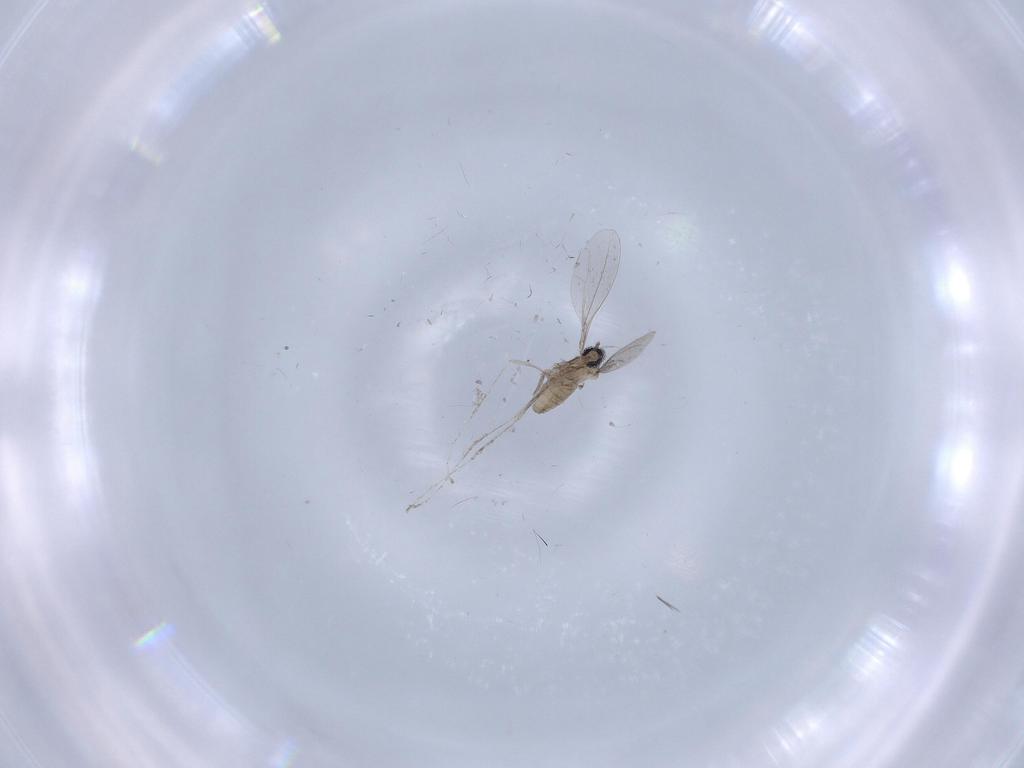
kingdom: Animalia
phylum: Arthropoda
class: Insecta
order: Diptera
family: Cecidomyiidae
